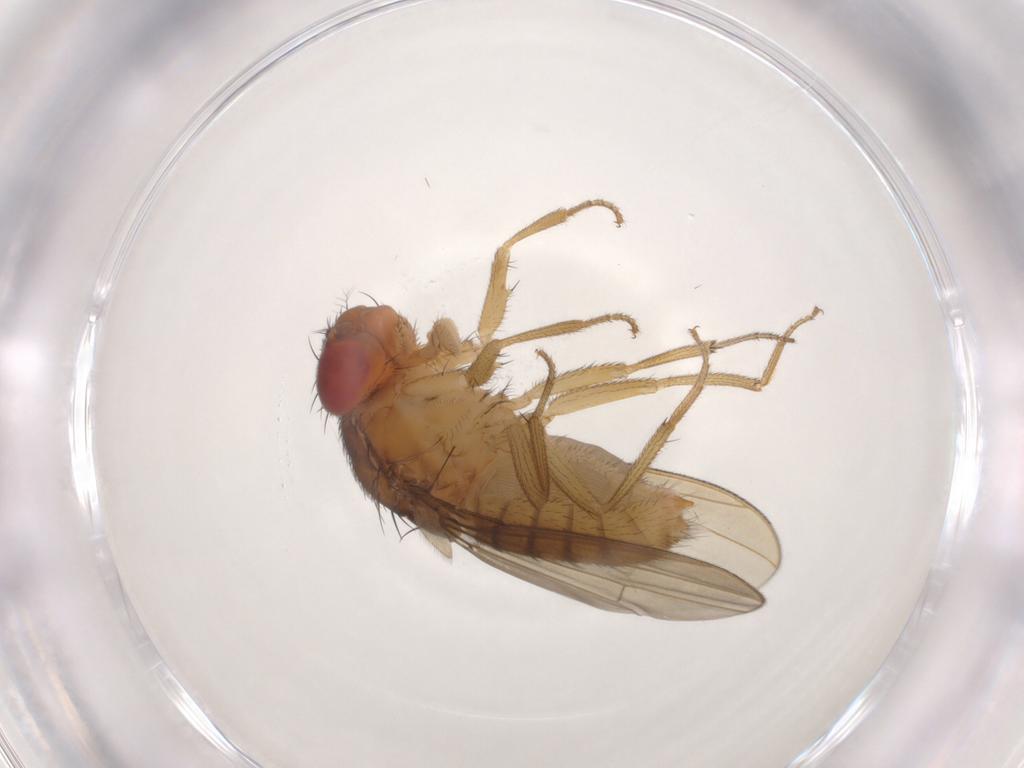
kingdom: Animalia
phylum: Arthropoda
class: Insecta
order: Diptera
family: Drosophilidae
